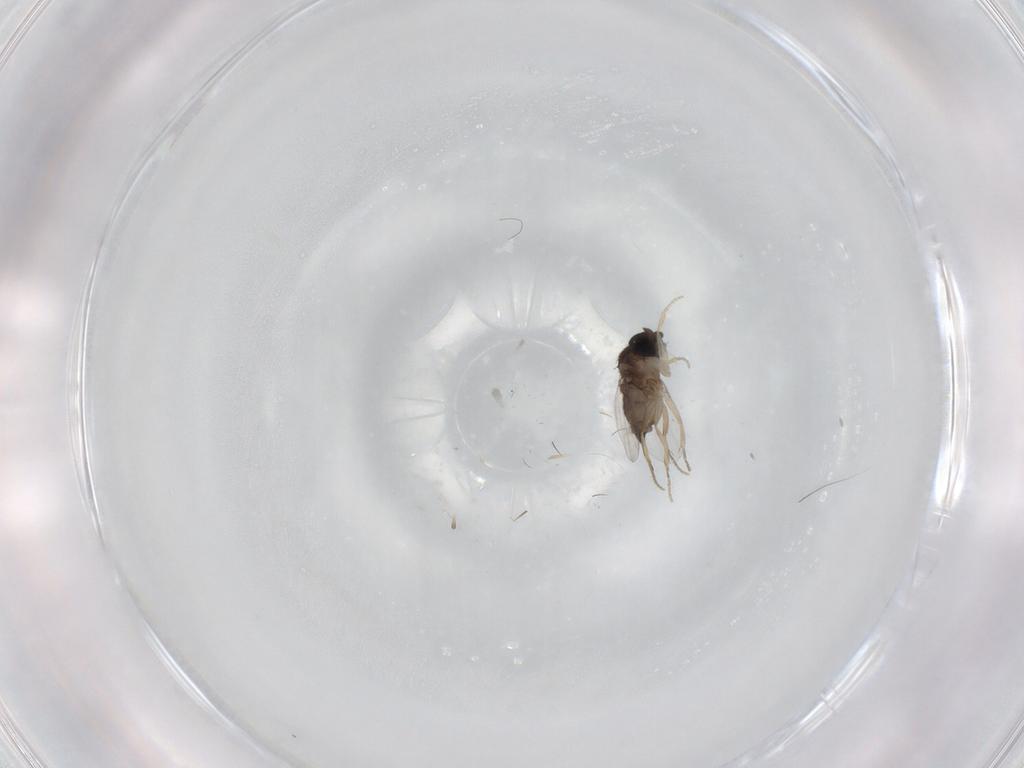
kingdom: Animalia
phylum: Arthropoda
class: Insecta
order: Diptera
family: Phoridae
